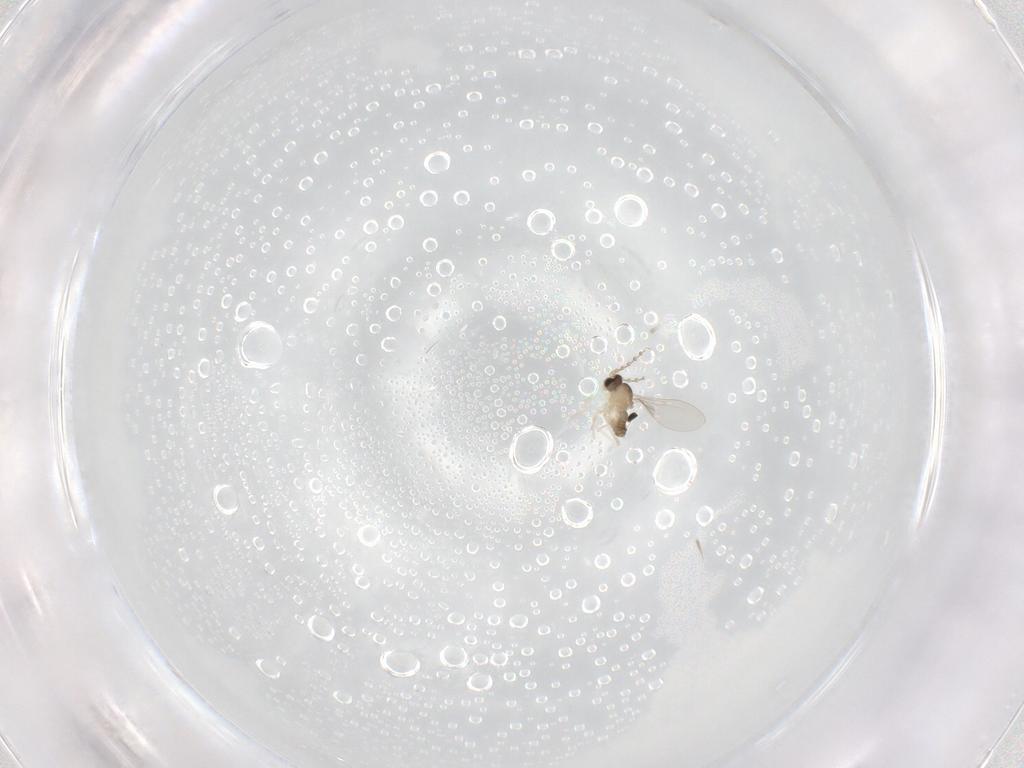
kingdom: Animalia
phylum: Arthropoda
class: Insecta
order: Diptera
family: Cecidomyiidae
